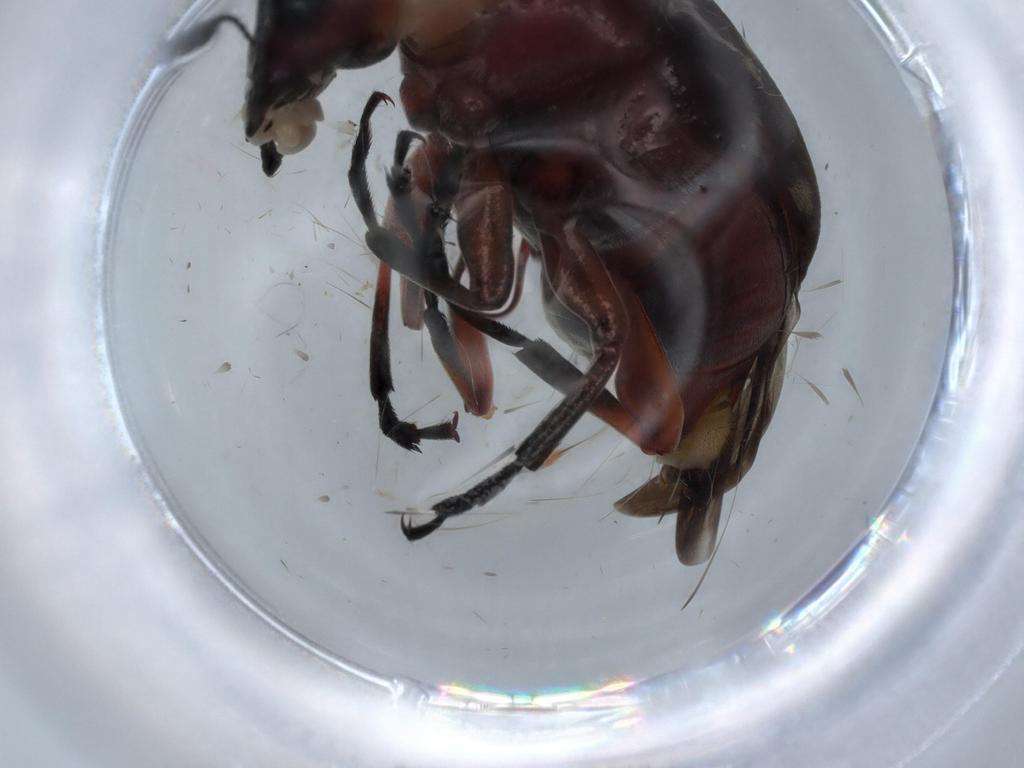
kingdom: Animalia
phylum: Arthropoda
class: Insecta
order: Coleoptera
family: Anthribidae
